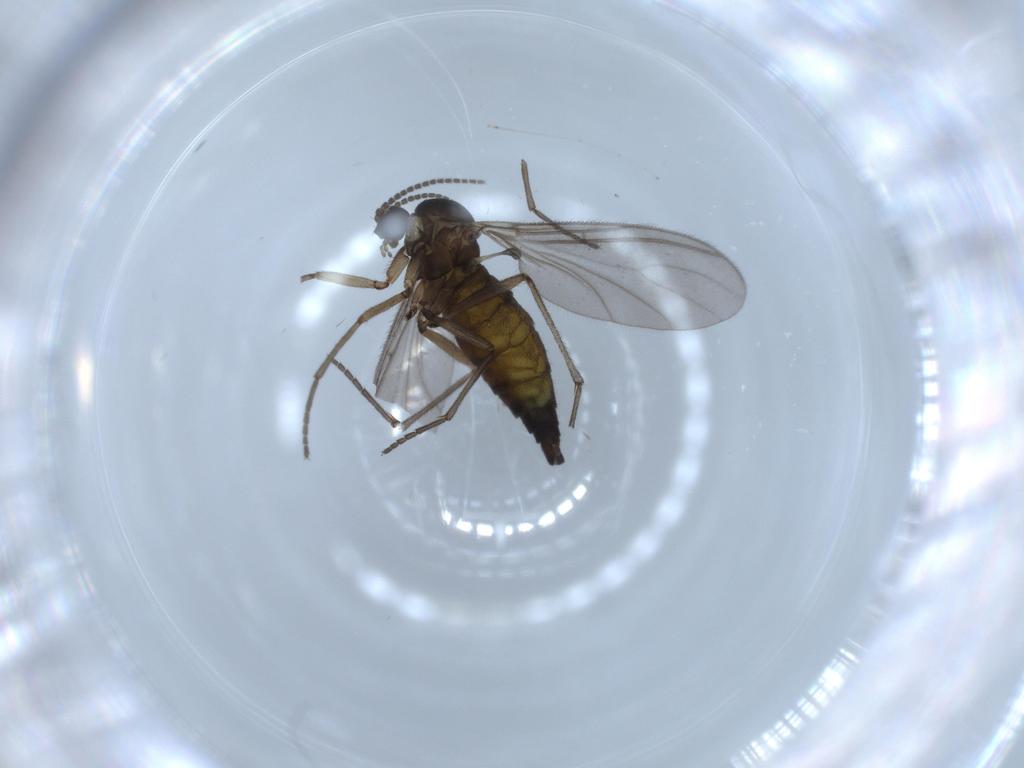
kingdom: Animalia
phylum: Arthropoda
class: Insecta
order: Diptera
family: Sciaridae
